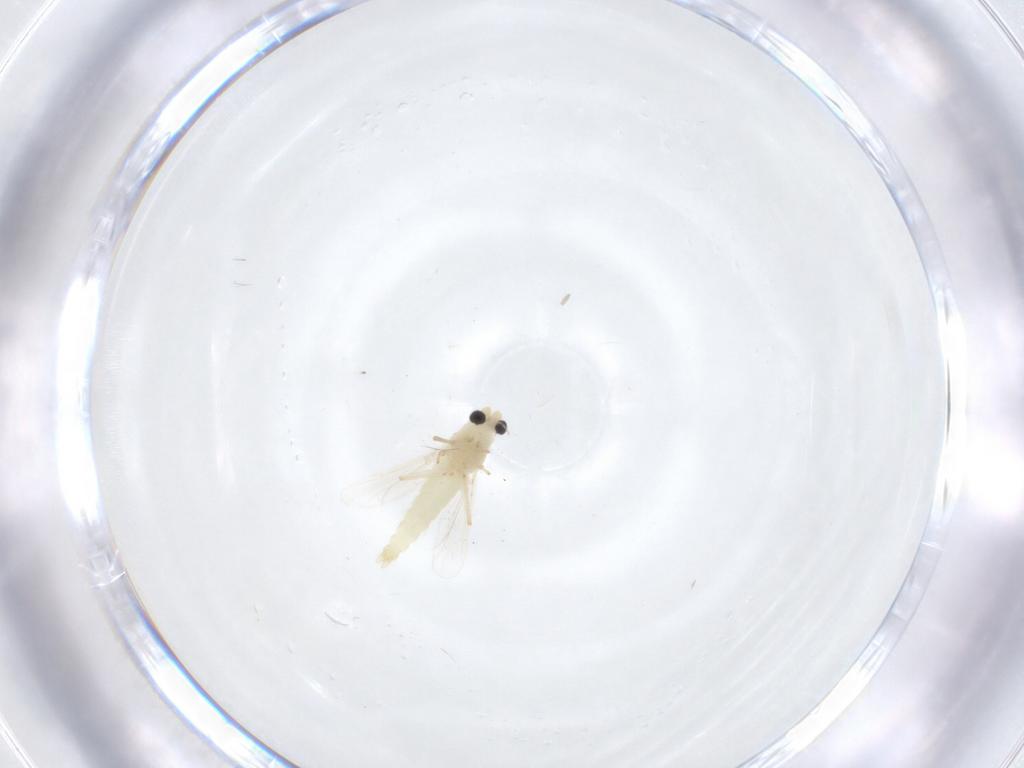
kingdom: Animalia
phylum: Arthropoda
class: Insecta
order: Diptera
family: Chironomidae
